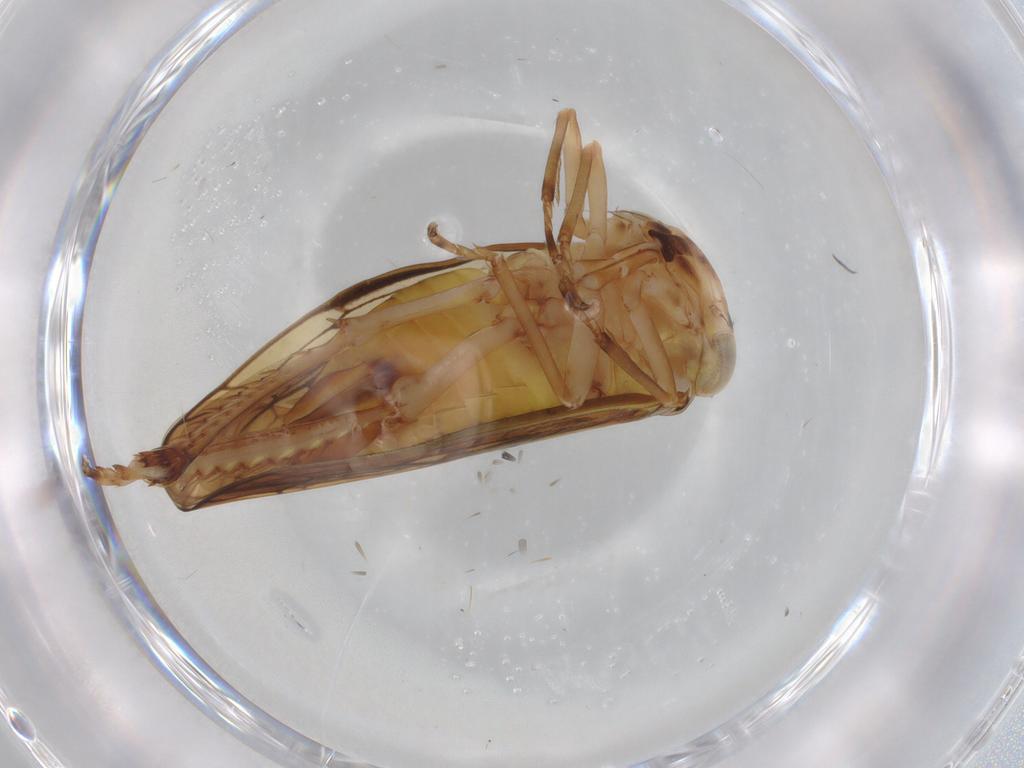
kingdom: Animalia
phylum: Arthropoda
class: Insecta
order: Hemiptera
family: Cicadellidae
